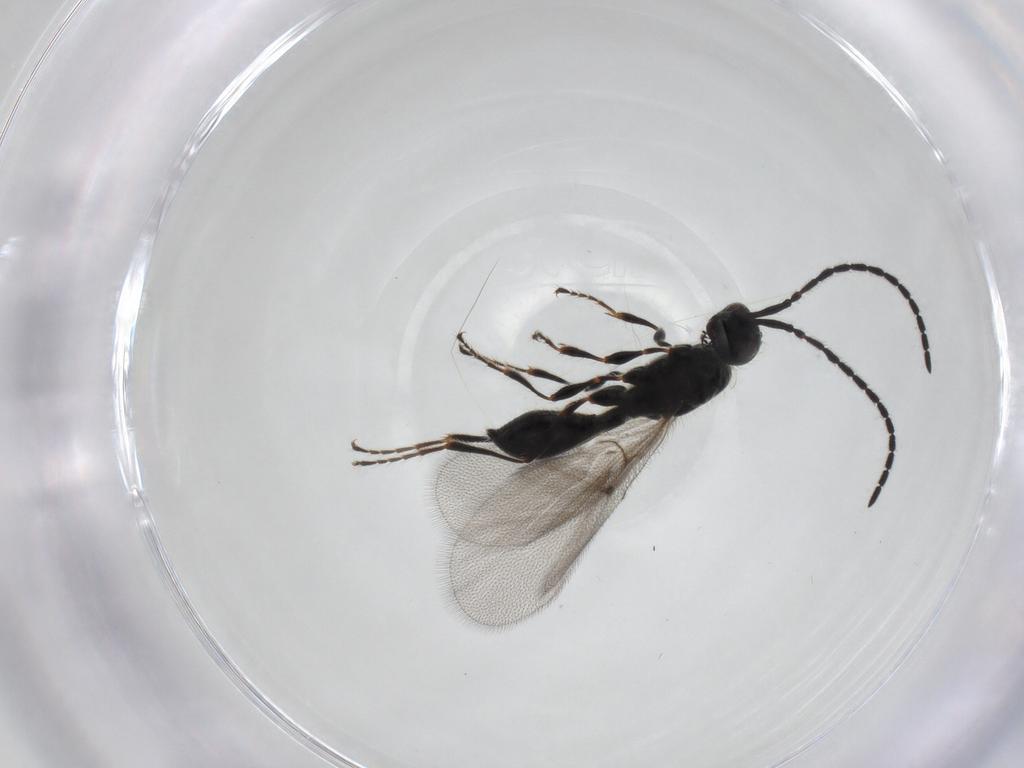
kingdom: Animalia
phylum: Arthropoda
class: Insecta
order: Hymenoptera
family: Diapriidae
